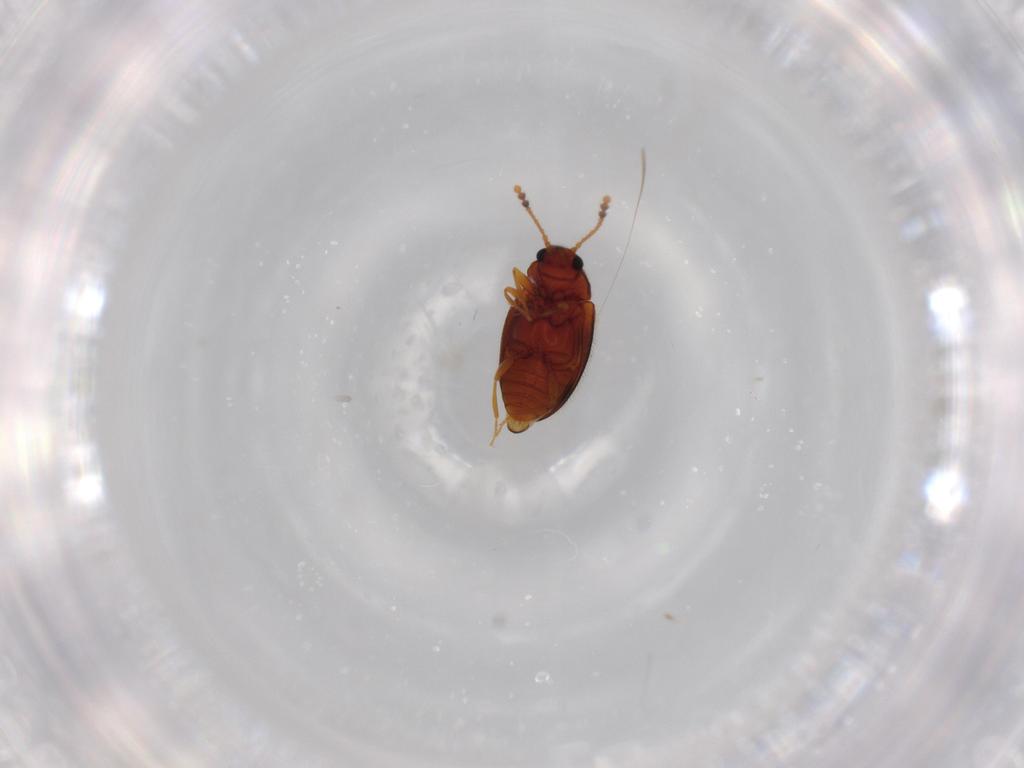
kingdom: Animalia
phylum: Arthropoda
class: Insecta
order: Coleoptera
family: Erotylidae
